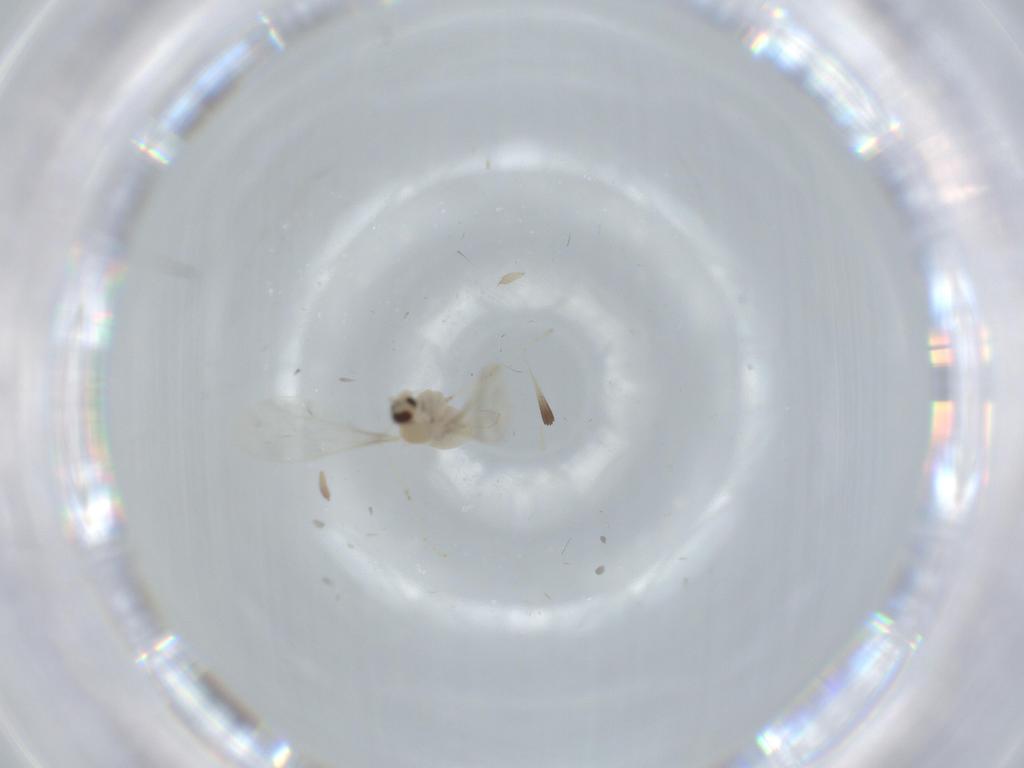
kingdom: Animalia
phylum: Arthropoda
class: Insecta
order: Diptera
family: Cecidomyiidae
